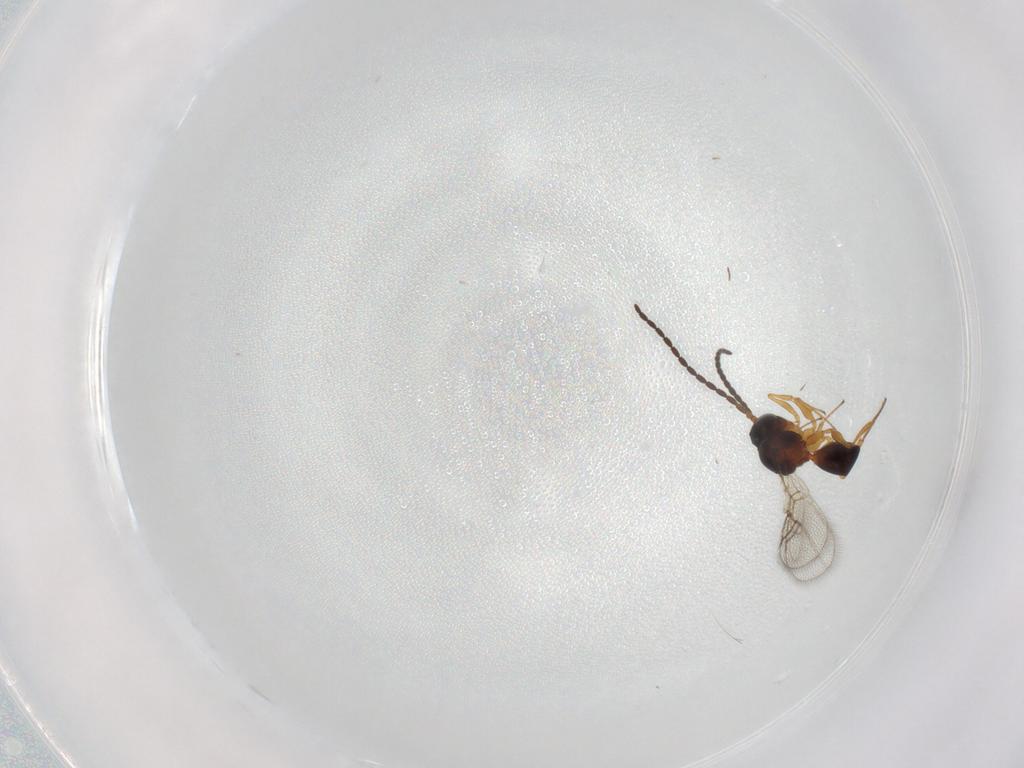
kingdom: Animalia
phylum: Arthropoda
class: Insecta
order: Hymenoptera
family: Figitidae
